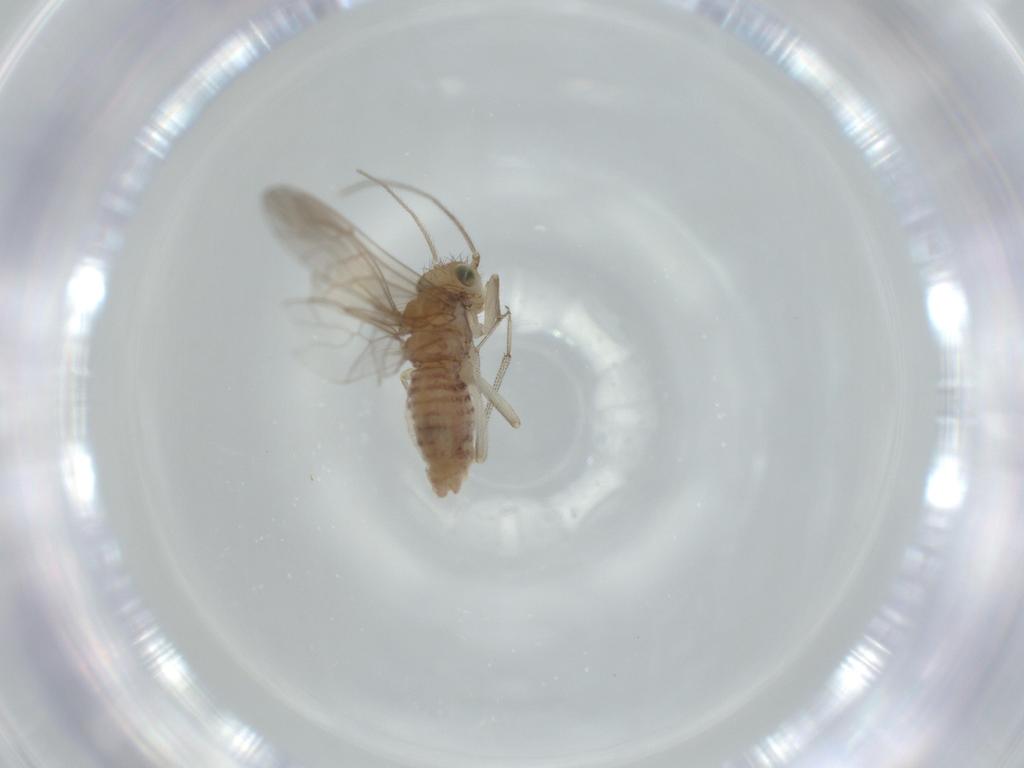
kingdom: Animalia
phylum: Arthropoda
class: Insecta
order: Psocodea
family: Caeciliusidae
